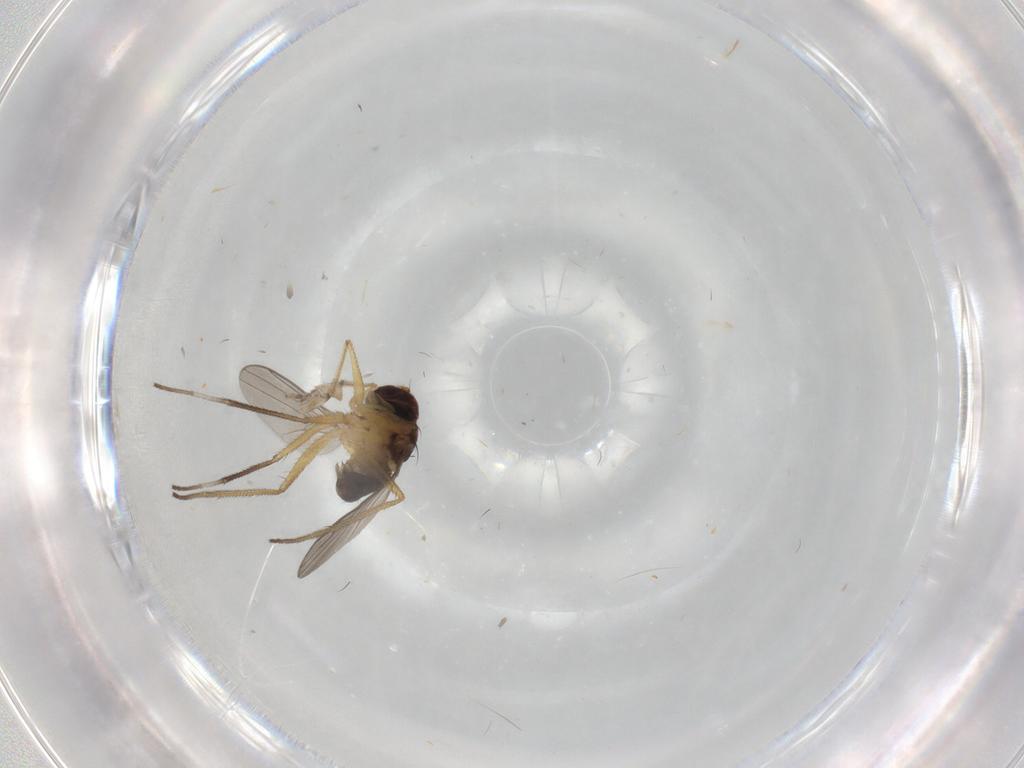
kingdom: Animalia
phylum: Arthropoda
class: Insecta
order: Diptera
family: Dolichopodidae
